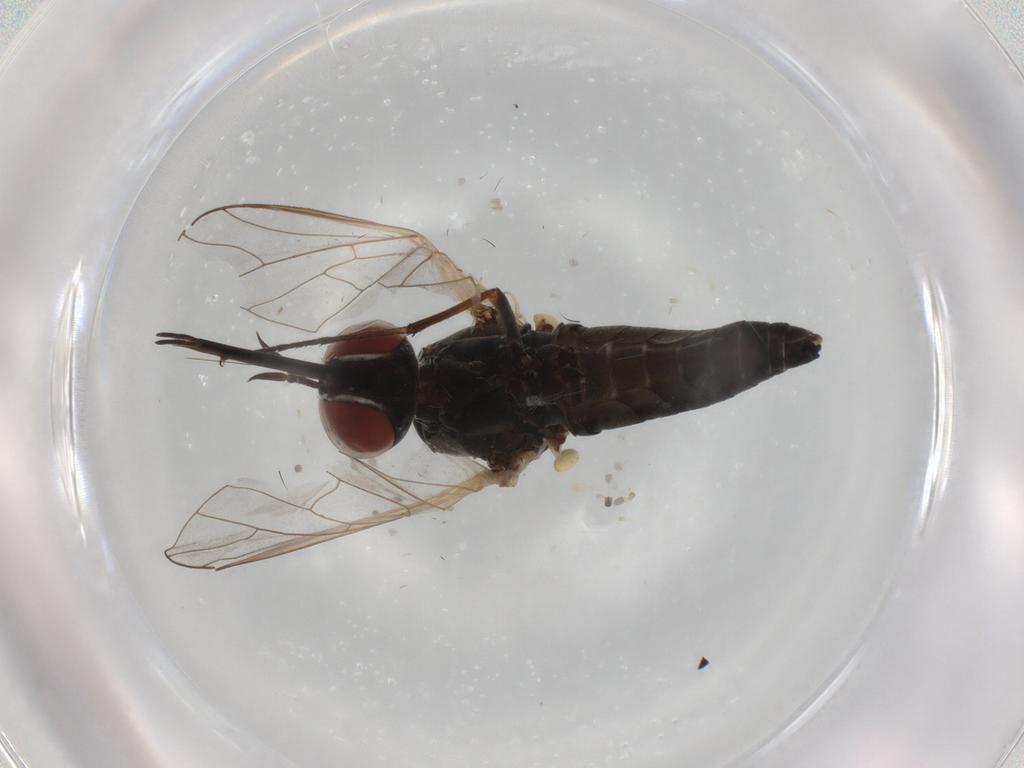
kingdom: Animalia
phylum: Arthropoda
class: Insecta
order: Diptera
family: Bombyliidae
